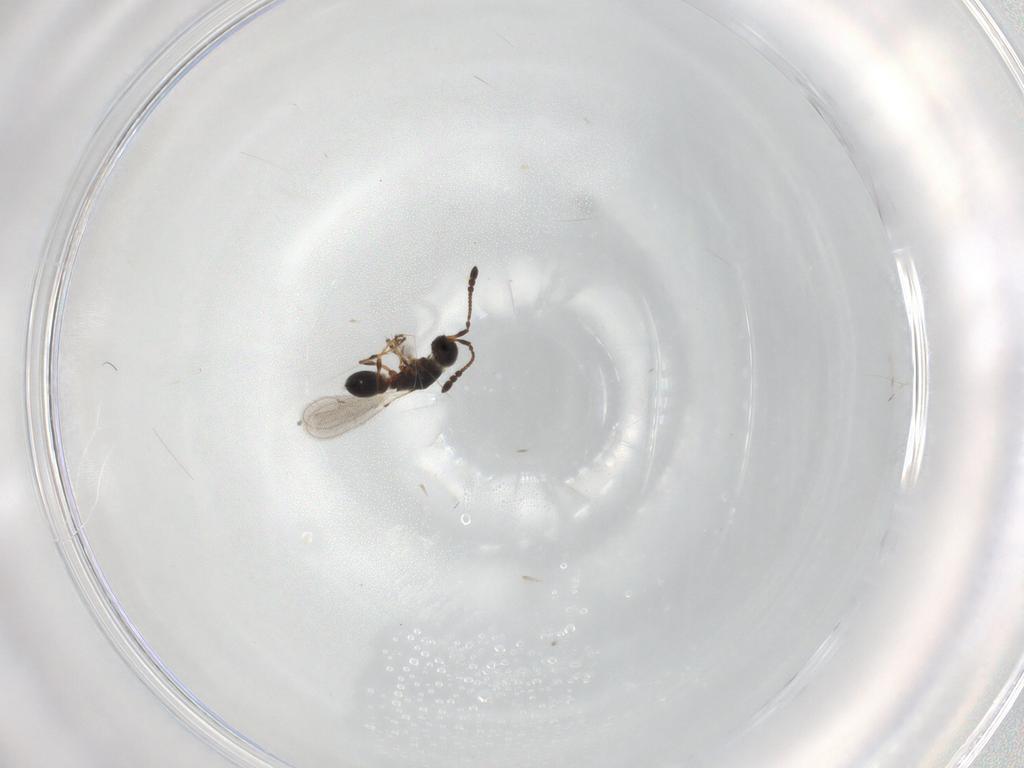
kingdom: Animalia
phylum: Arthropoda
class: Insecta
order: Hymenoptera
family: Diapriidae
